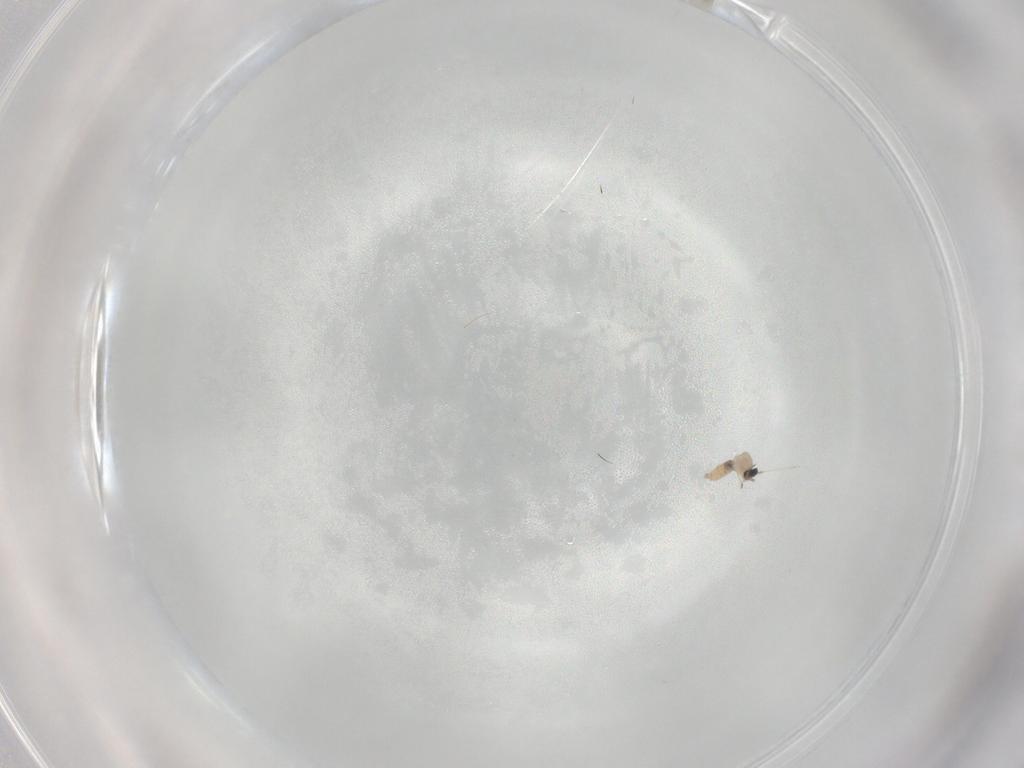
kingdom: Animalia
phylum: Arthropoda
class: Insecta
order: Diptera
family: Cecidomyiidae
